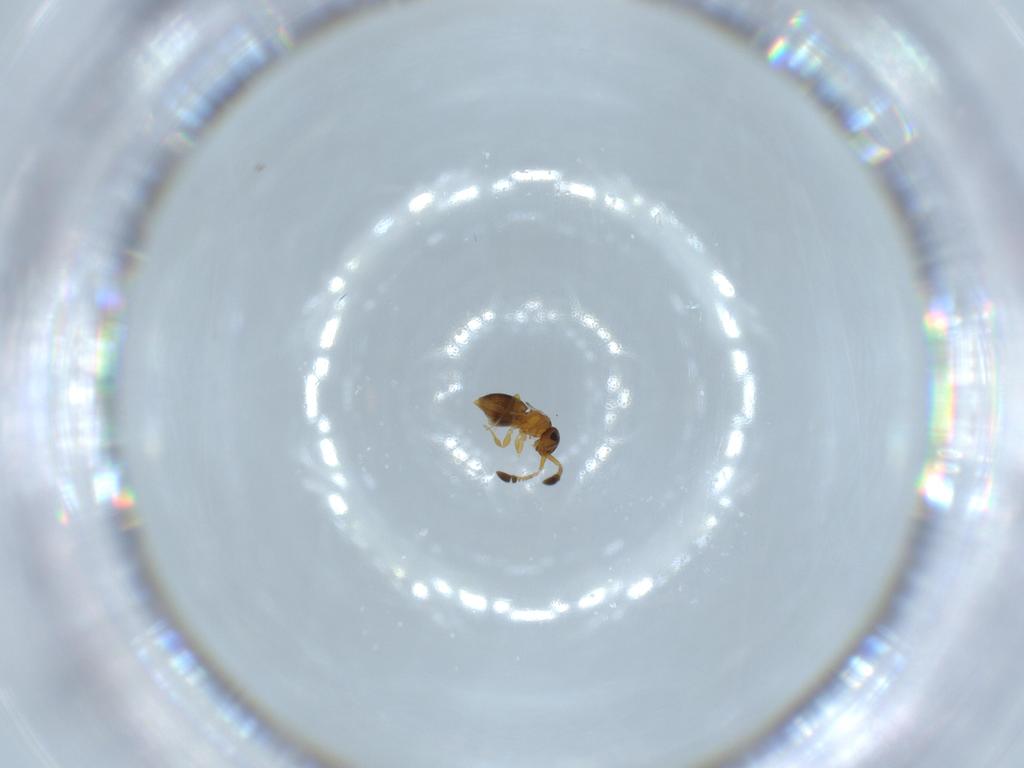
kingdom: Animalia
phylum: Arthropoda
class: Insecta
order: Hymenoptera
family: Ceraphronidae
